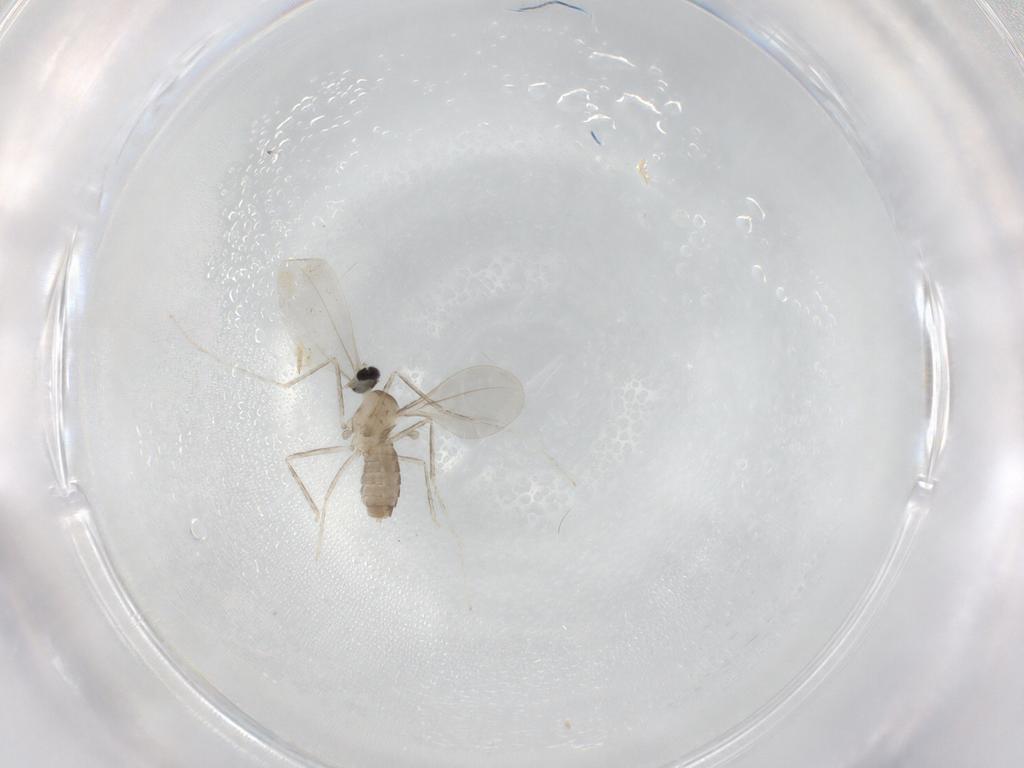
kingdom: Animalia
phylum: Arthropoda
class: Insecta
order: Diptera
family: Cecidomyiidae
